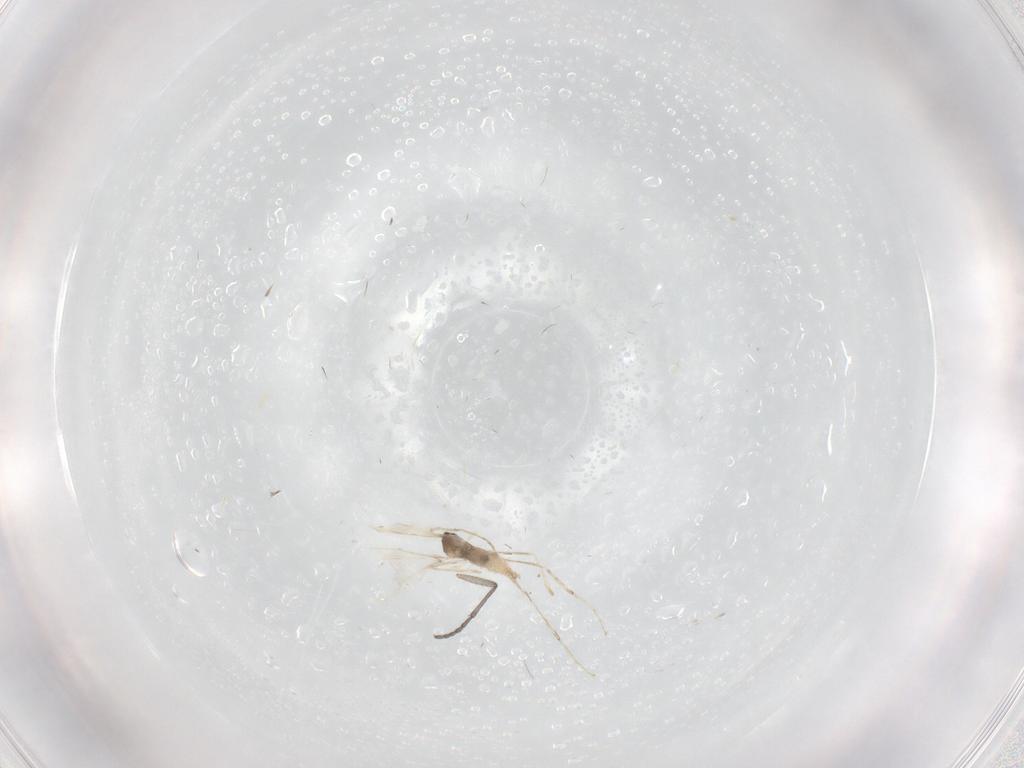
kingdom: Animalia
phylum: Arthropoda
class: Insecta
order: Diptera
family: Cecidomyiidae
